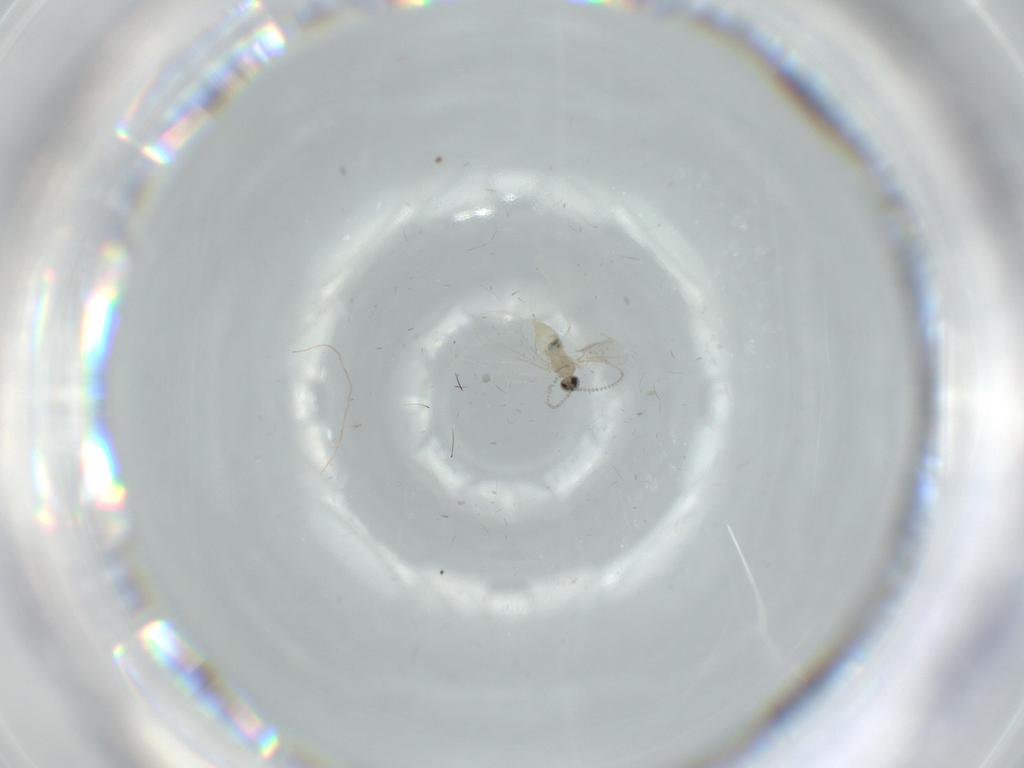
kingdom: Animalia
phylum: Arthropoda
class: Insecta
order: Diptera
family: Cecidomyiidae
